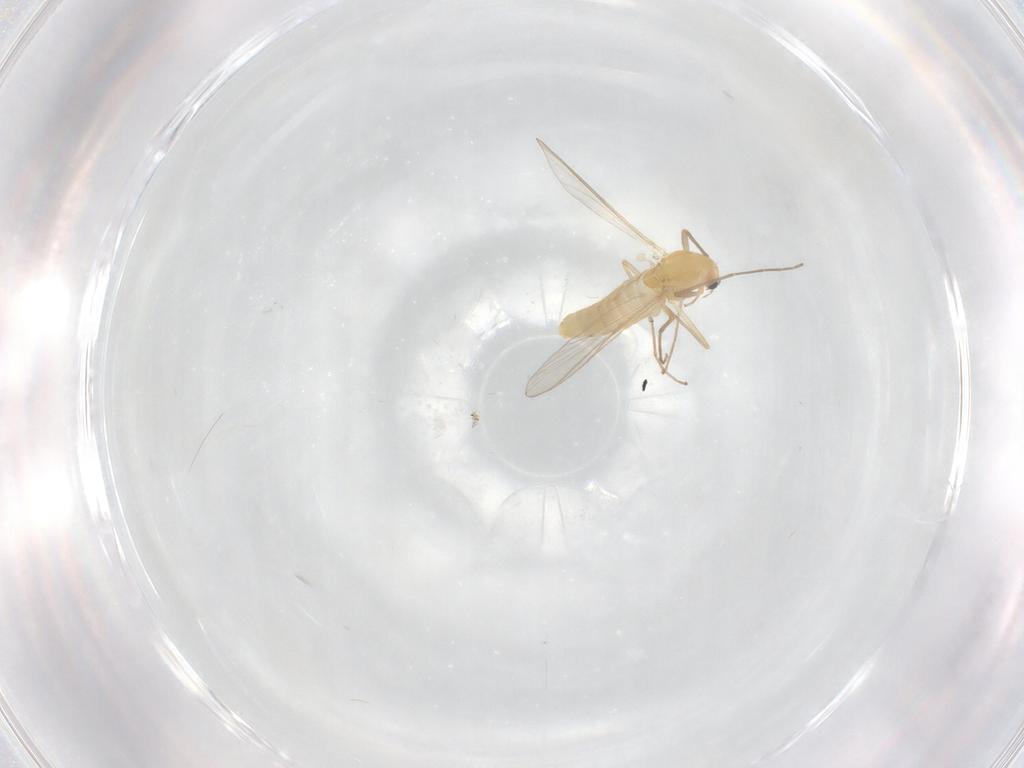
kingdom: Animalia
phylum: Arthropoda
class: Insecta
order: Diptera
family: Chironomidae
